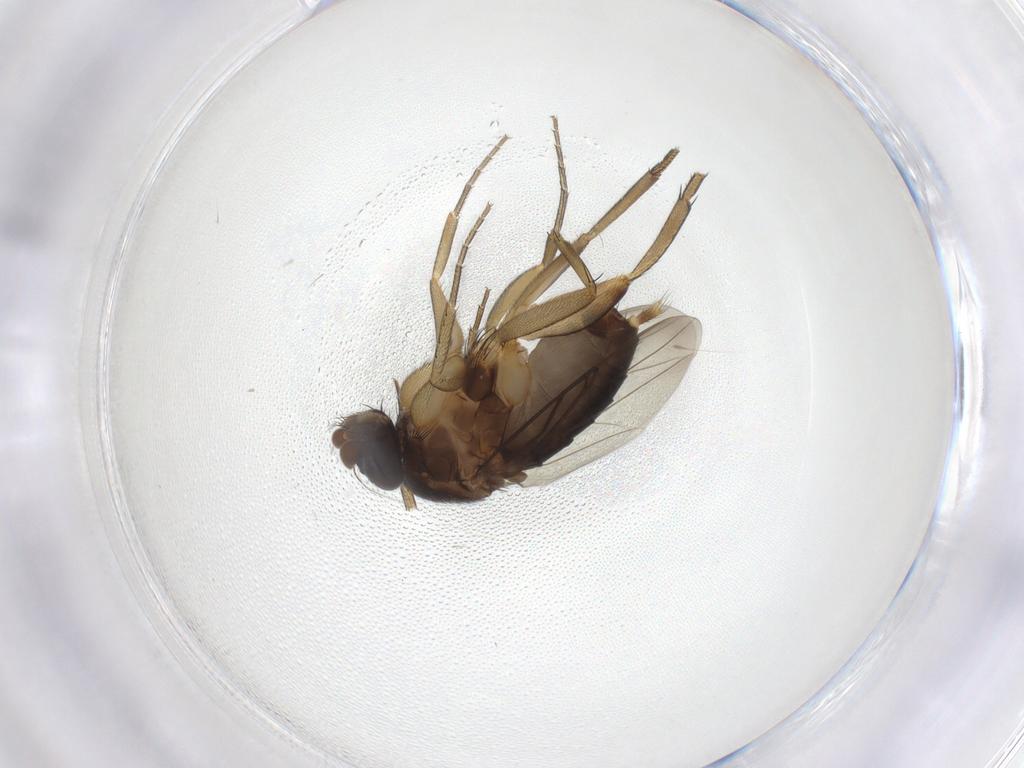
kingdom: Animalia
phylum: Arthropoda
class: Insecta
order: Diptera
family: Phoridae
